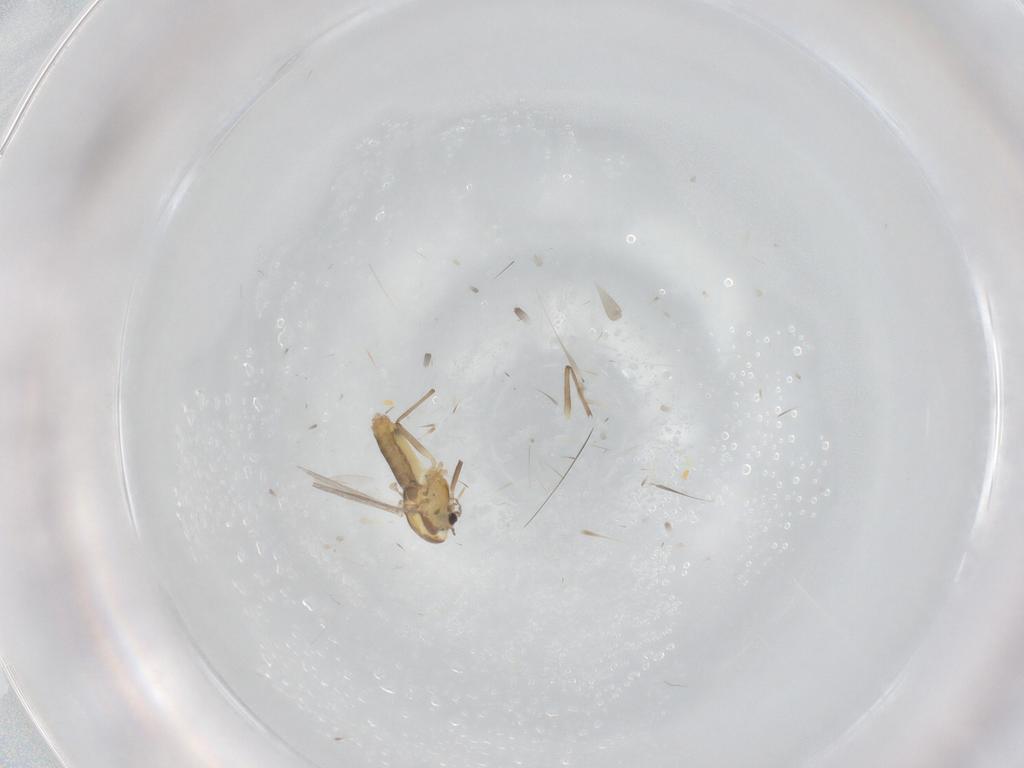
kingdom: Animalia
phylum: Arthropoda
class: Insecta
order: Diptera
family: Chironomidae
